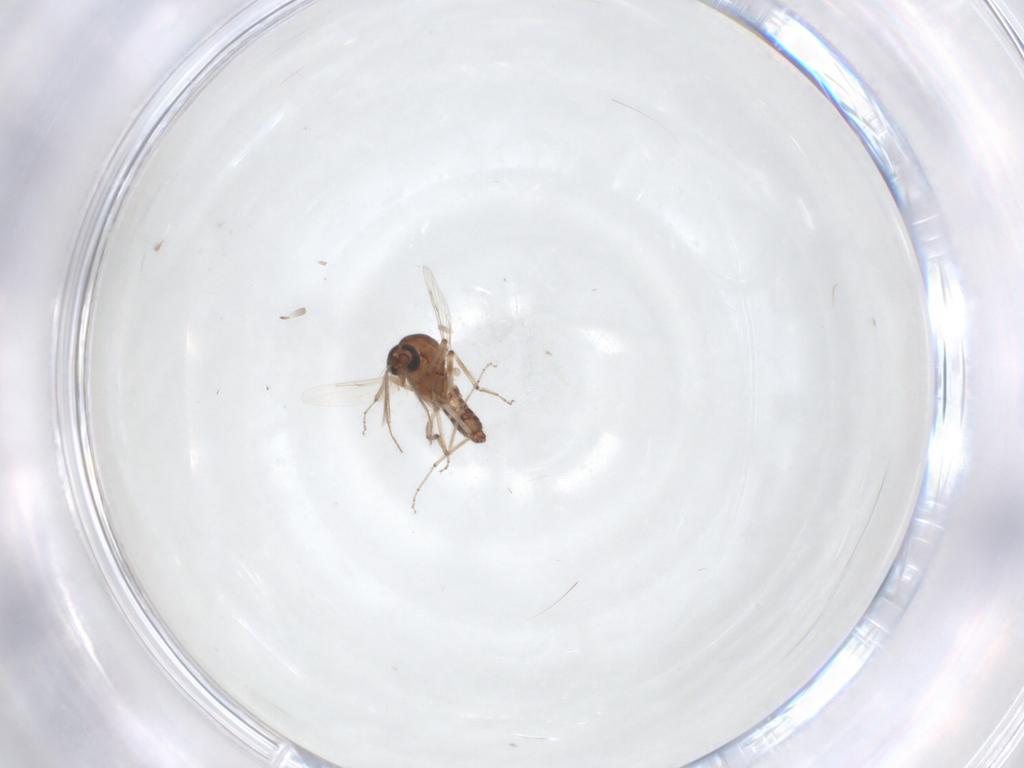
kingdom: Animalia
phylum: Arthropoda
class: Insecta
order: Diptera
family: Ceratopogonidae
